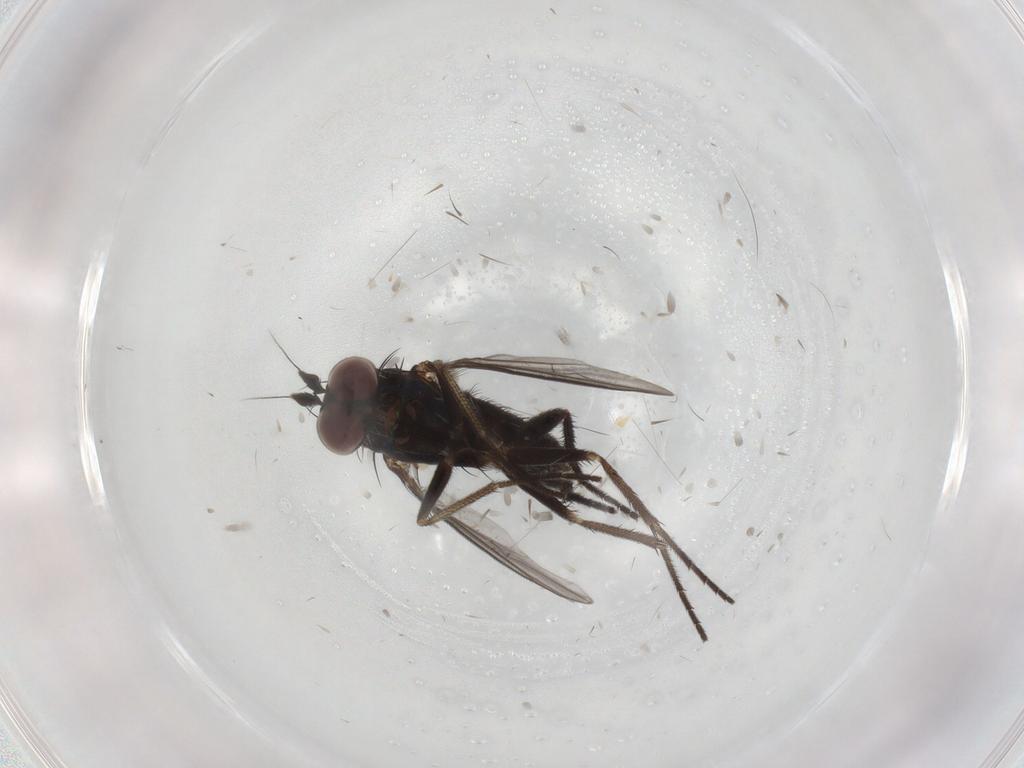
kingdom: Animalia
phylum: Arthropoda
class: Insecta
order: Diptera
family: Dolichopodidae
